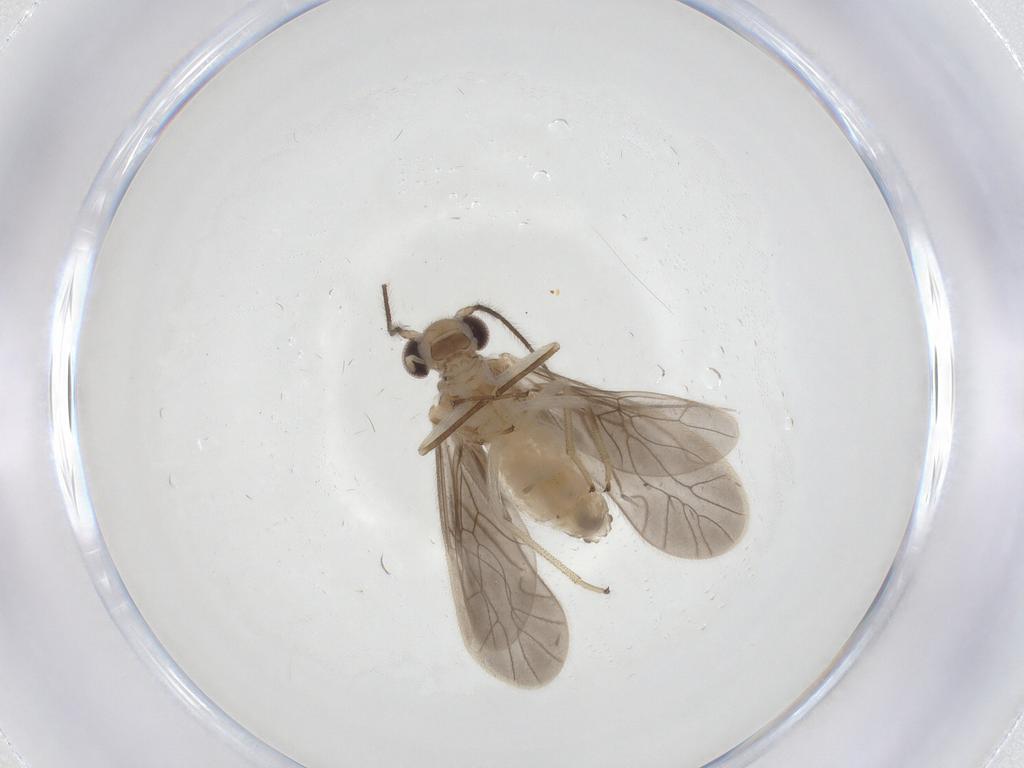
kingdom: Animalia
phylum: Arthropoda
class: Insecta
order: Psocodea
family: Caeciliusidae
